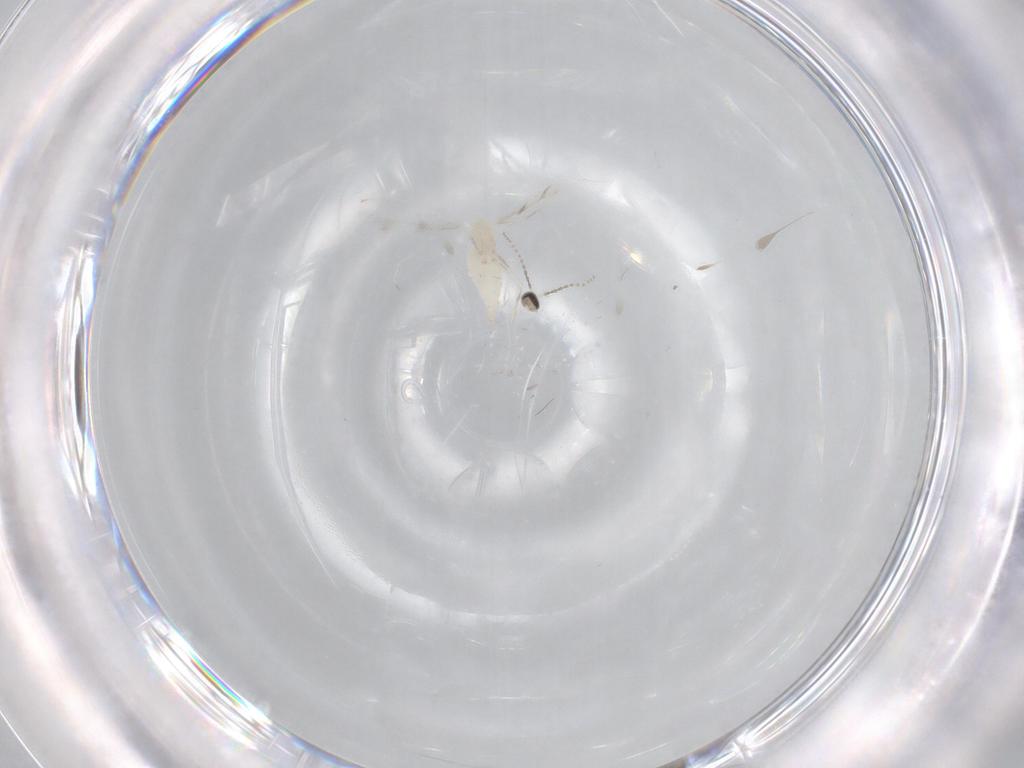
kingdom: Animalia
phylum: Arthropoda
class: Insecta
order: Diptera
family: Cecidomyiidae
